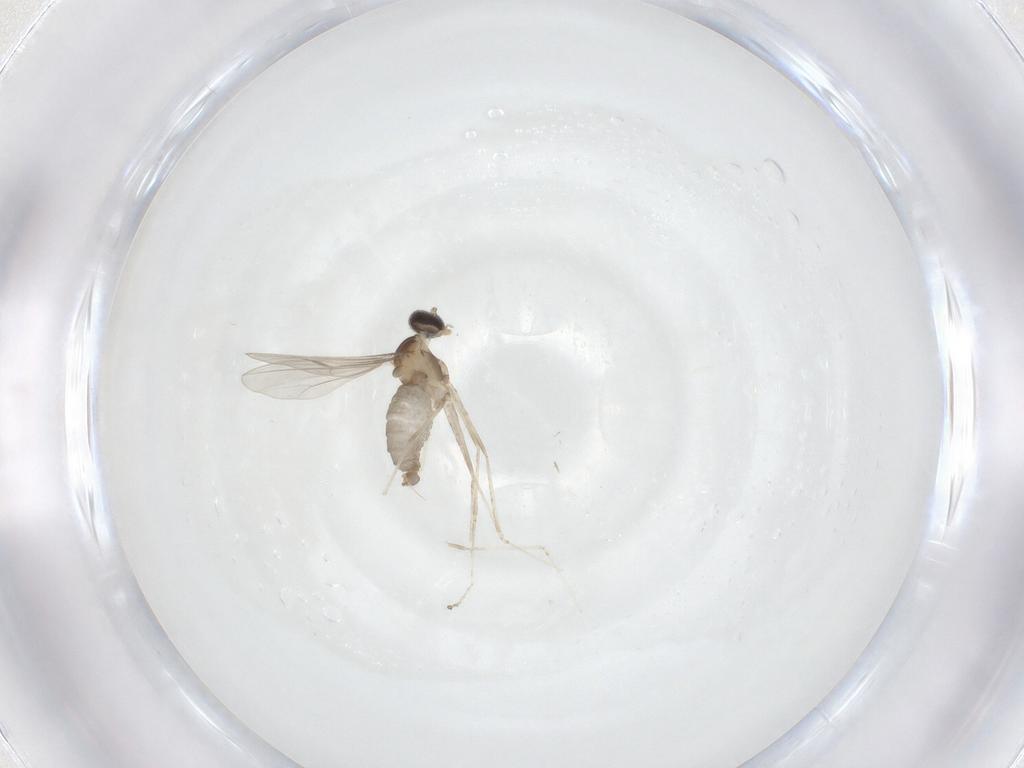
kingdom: Animalia
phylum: Arthropoda
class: Insecta
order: Diptera
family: Cecidomyiidae
